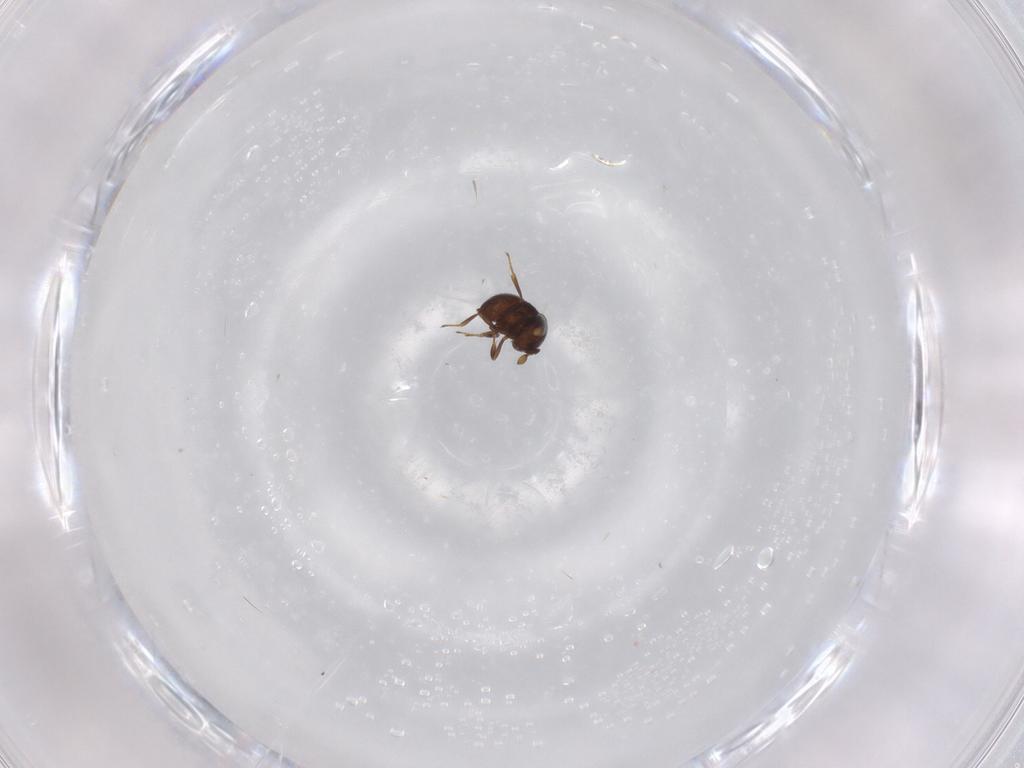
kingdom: Animalia
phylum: Arthropoda
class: Insecta
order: Hymenoptera
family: Scelionidae
